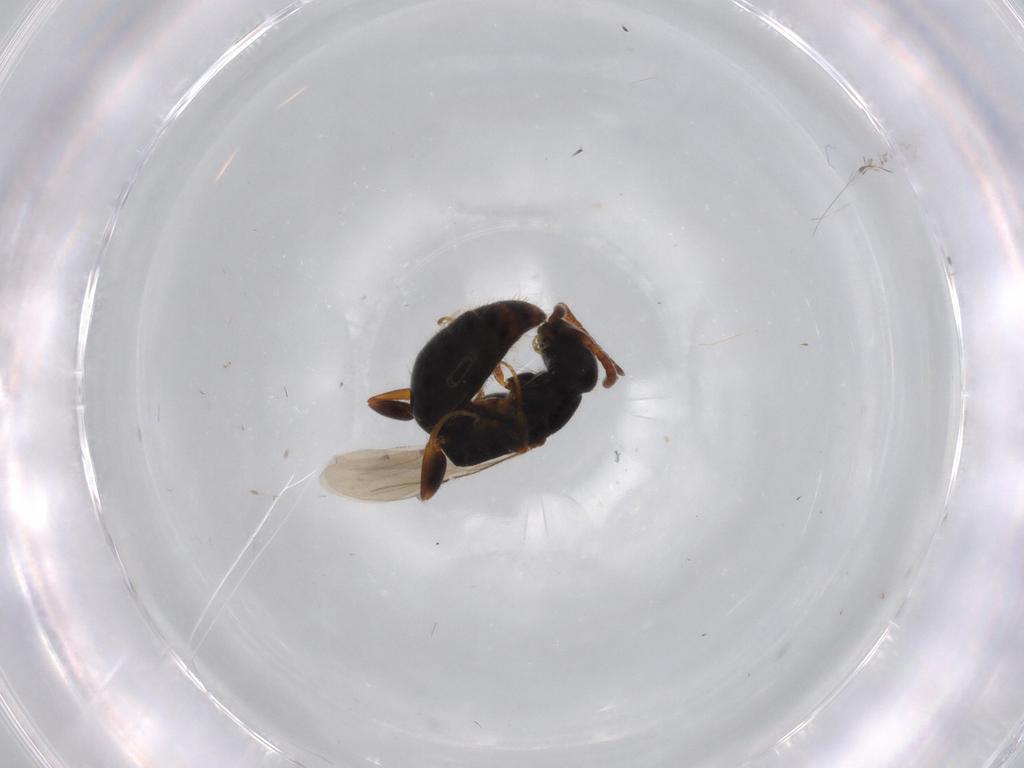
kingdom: Animalia
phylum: Arthropoda
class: Insecta
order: Hymenoptera
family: Bethylidae
